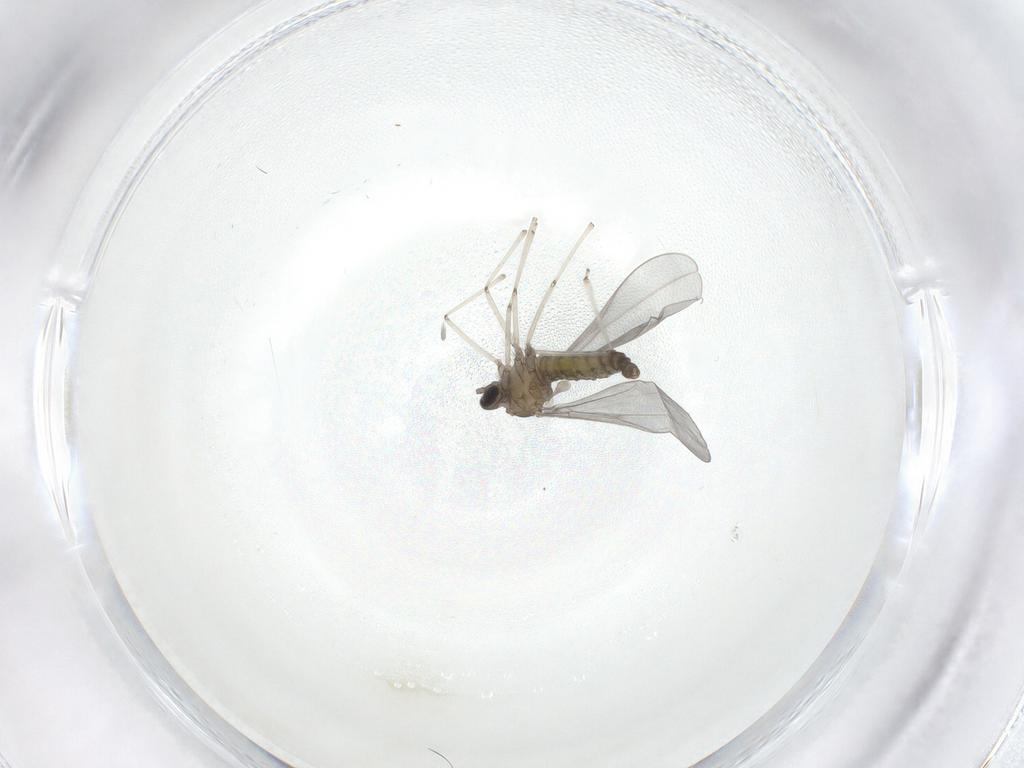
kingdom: Animalia
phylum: Arthropoda
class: Insecta
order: Diptera
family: Cecidomyiidae
